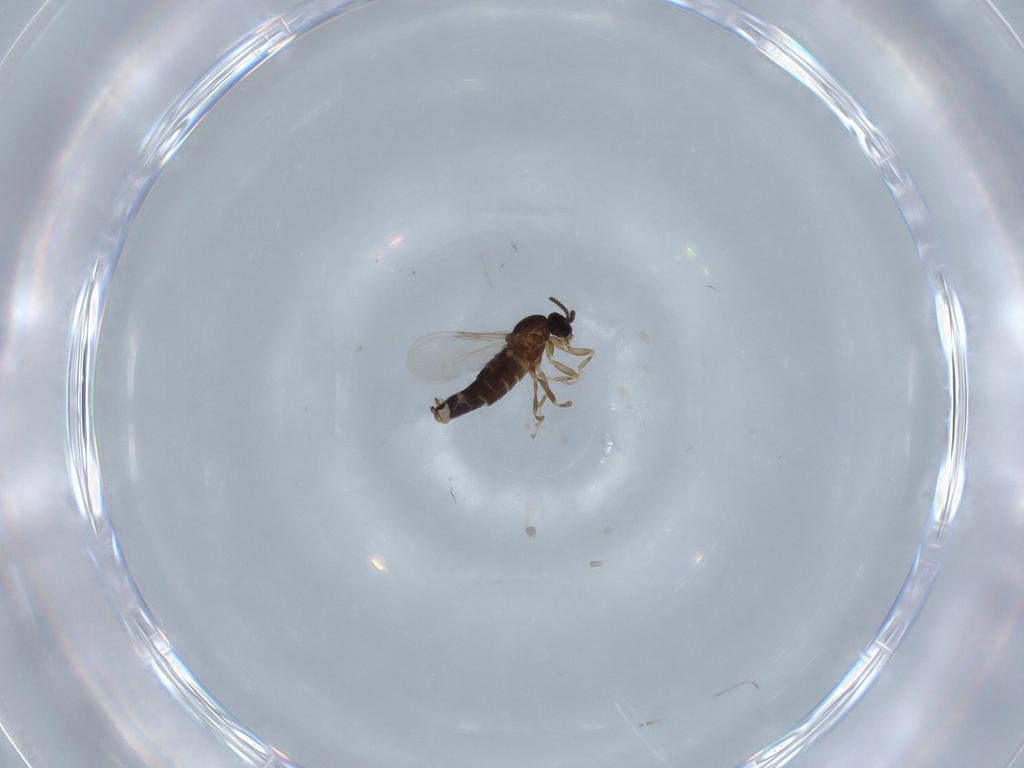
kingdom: Animalia
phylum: Arthropoda
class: Insecta
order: Diptera
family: Scatopsidae
